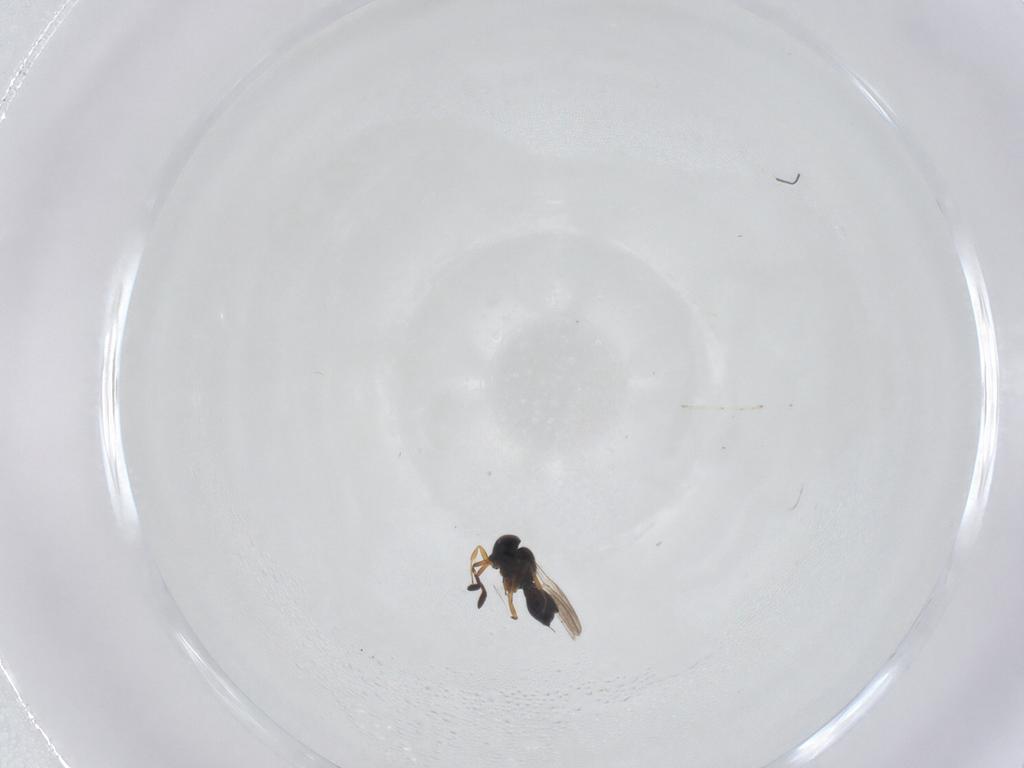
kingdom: Animalia
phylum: Arthropoda
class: Insecta
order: Hymenoptera
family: Scelionidae
